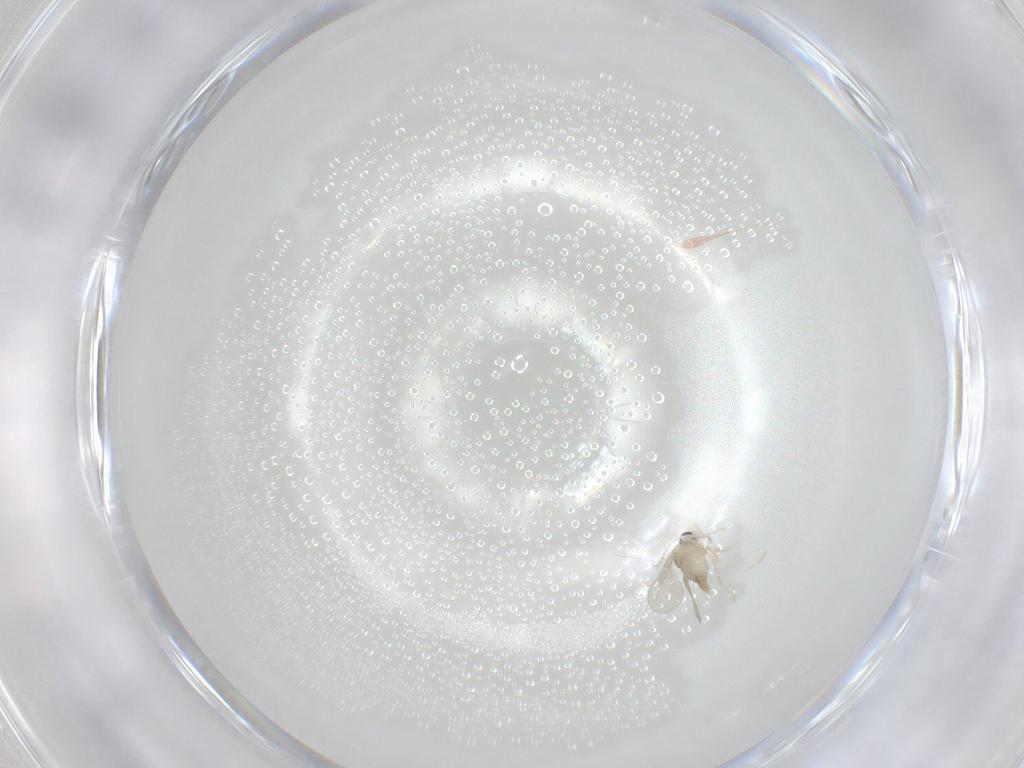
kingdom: Animalia
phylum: Arthropoda
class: Insecta
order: Diptera
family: Cecidomyiidae
